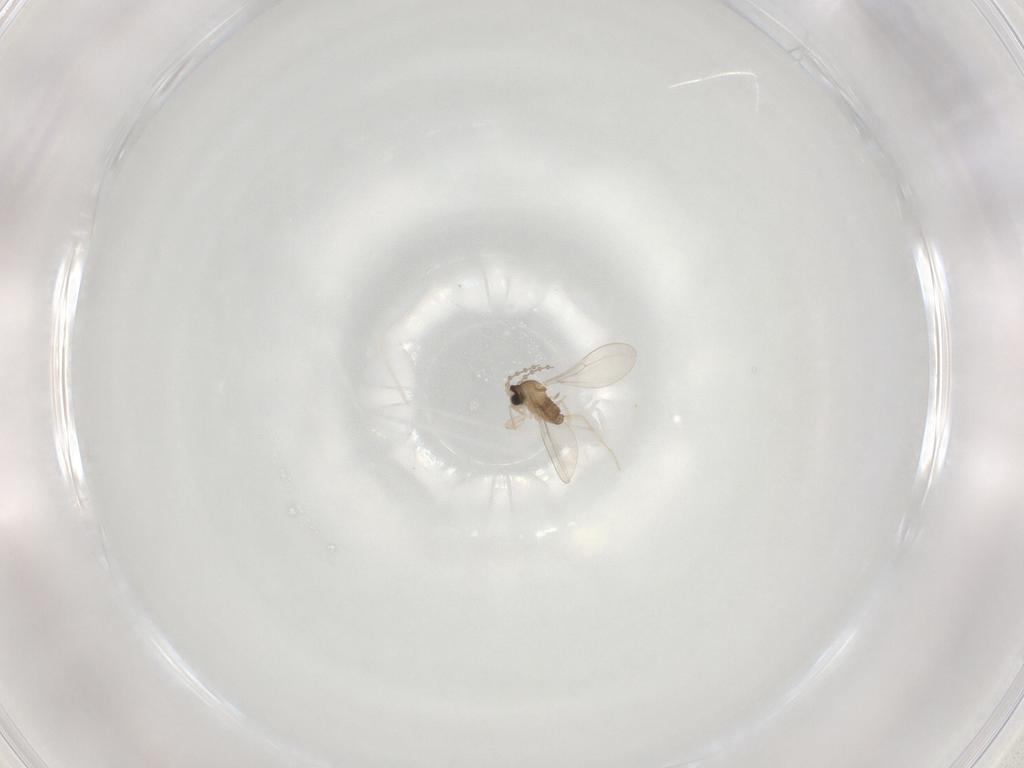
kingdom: Animalia
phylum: Arthropoda
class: Insecta
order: Diptera
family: Cecidomyiidae
